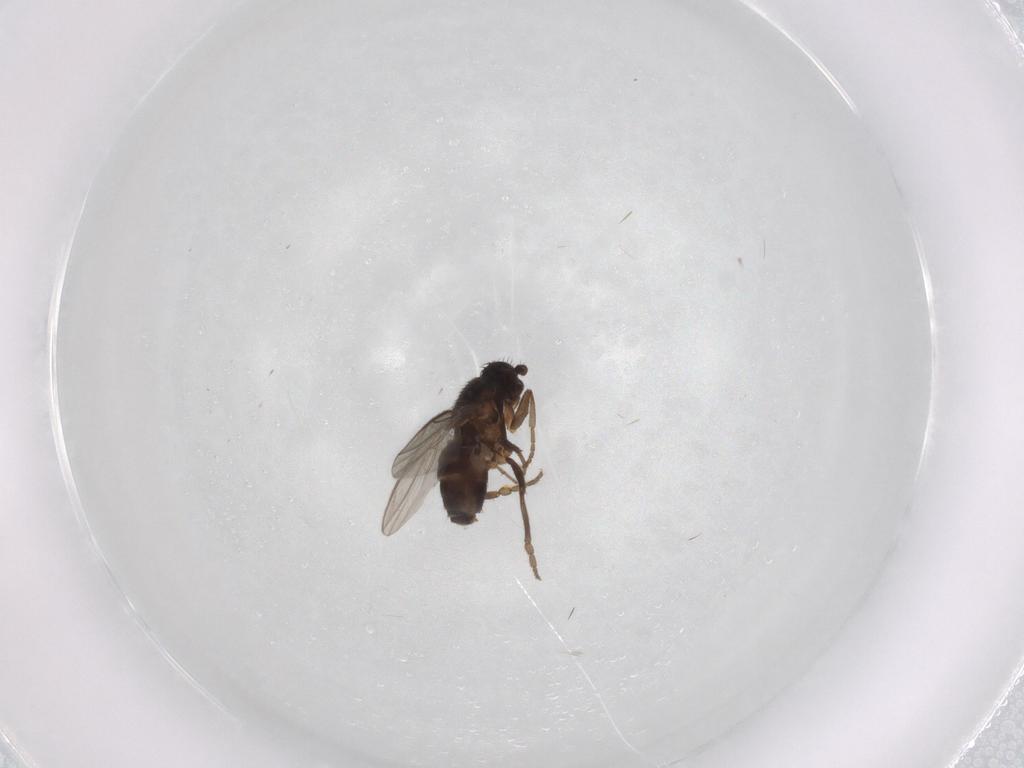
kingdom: Animalia
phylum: Arthropoda
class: Insecta
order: Diptera
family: Sphaeroceridae
